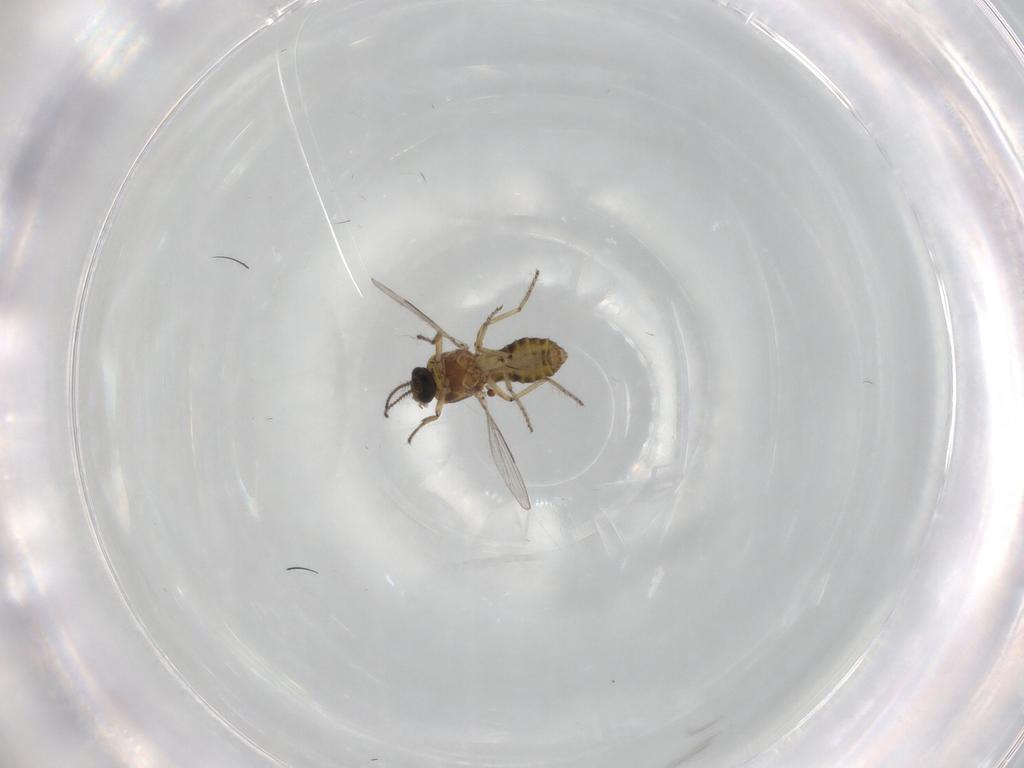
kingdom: Animalia
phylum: Arthropoda
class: Insecta
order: Diptera
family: Ceratopogonidae
